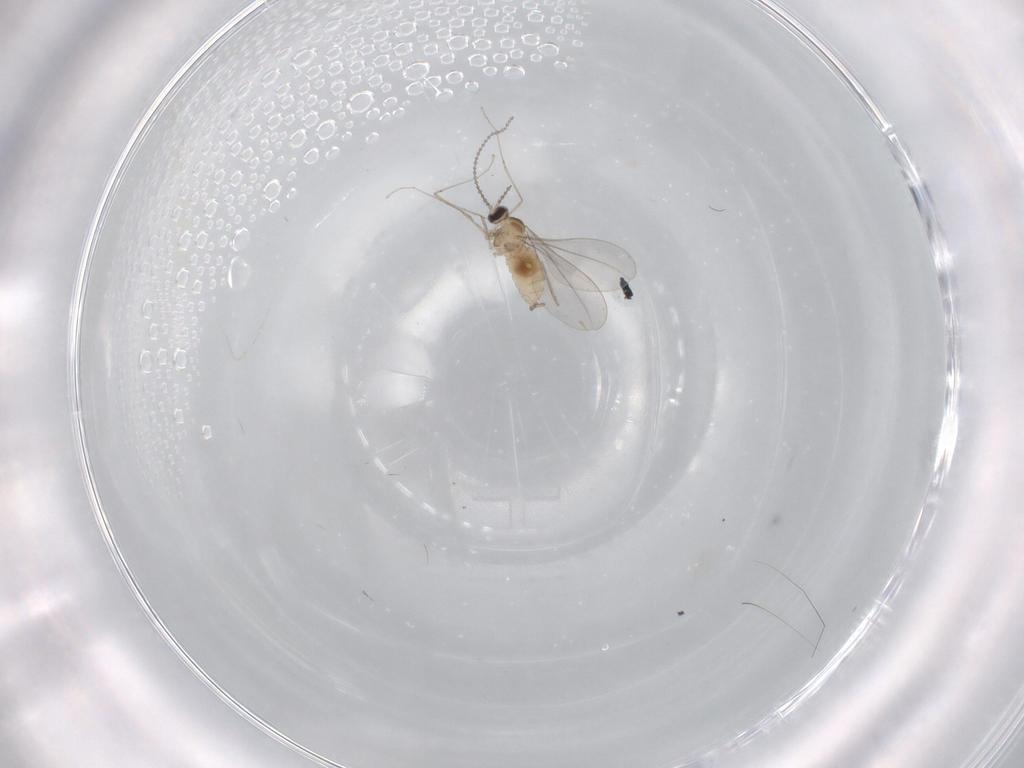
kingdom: Animalia
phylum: Arthropoda
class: Insecta
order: Diptera
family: Cecidomyiidae
